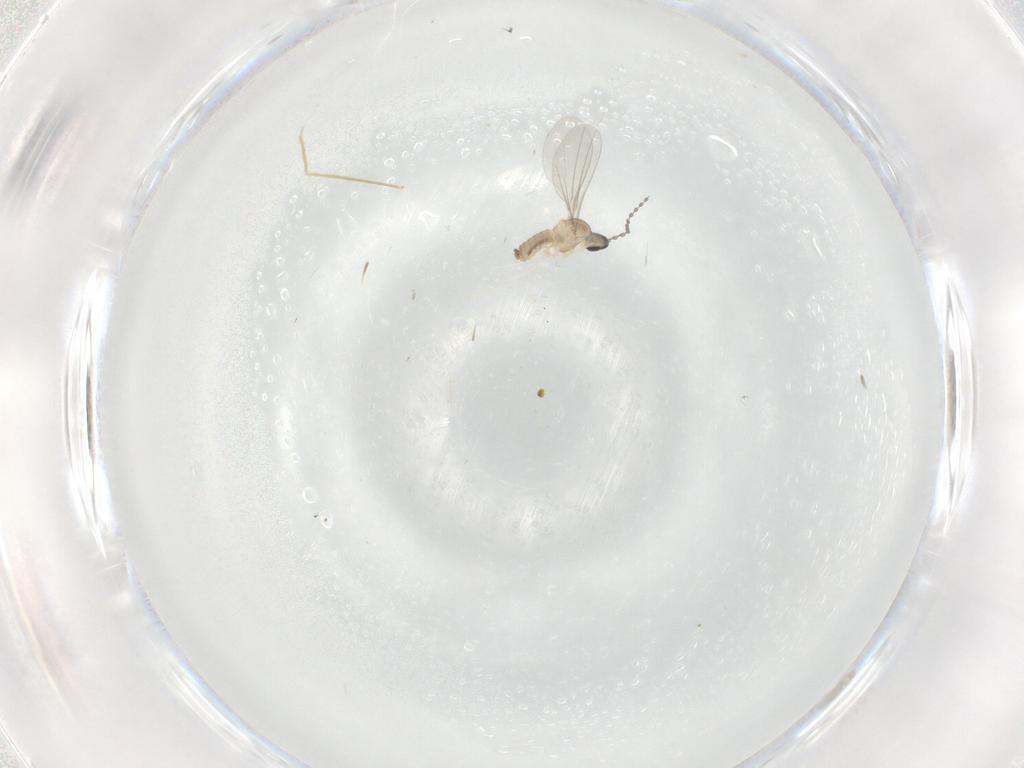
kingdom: Animalia
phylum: Arthropoda
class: Insecta
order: Diptera
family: Cecidomyiidae
